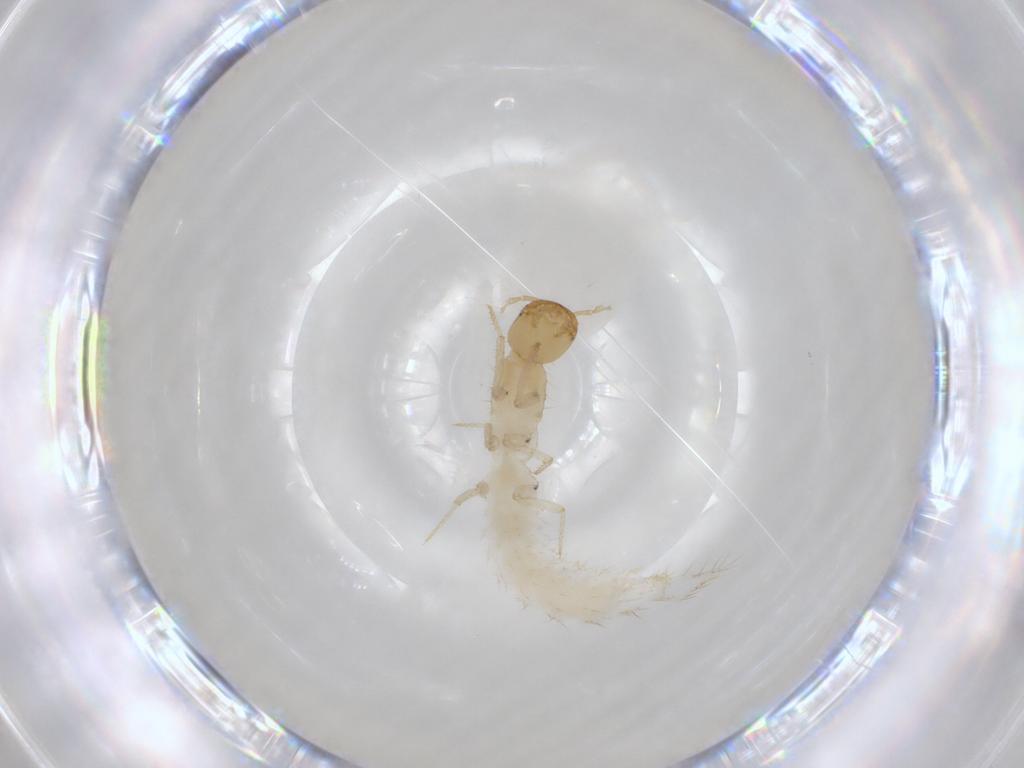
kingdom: Animalia
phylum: Arthropoda
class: Insecta
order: Coleoptera
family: Staphylinidae
